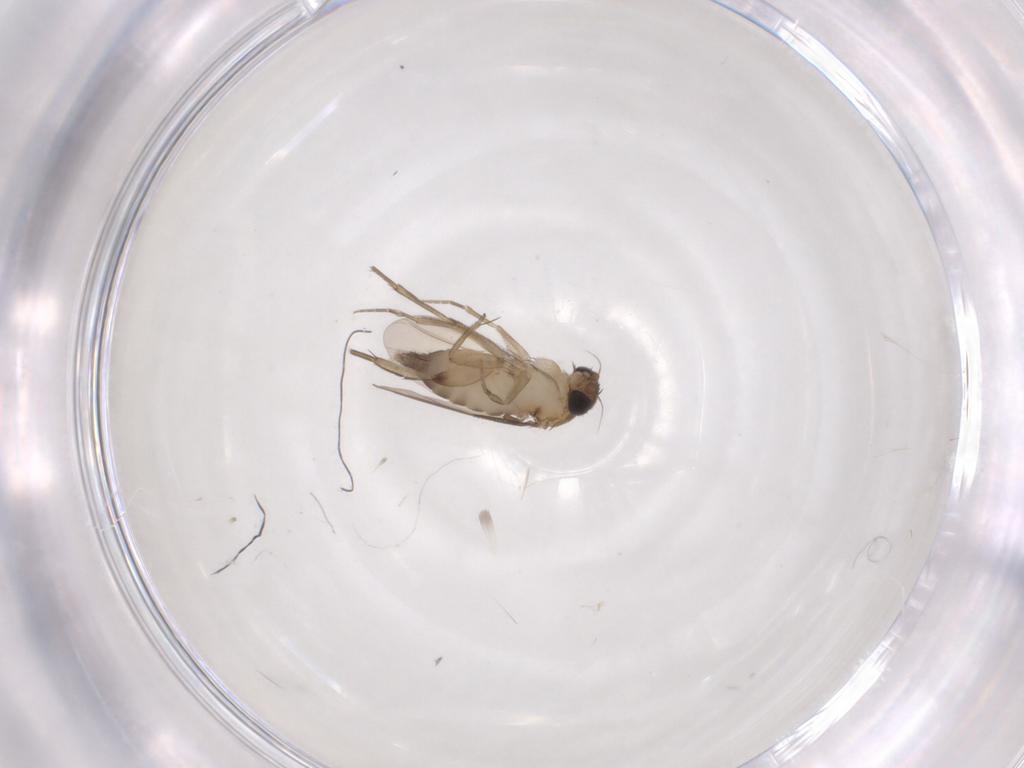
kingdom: Animalia
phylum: Arthropoda
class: Insecta
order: Diptera
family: Phoridae
